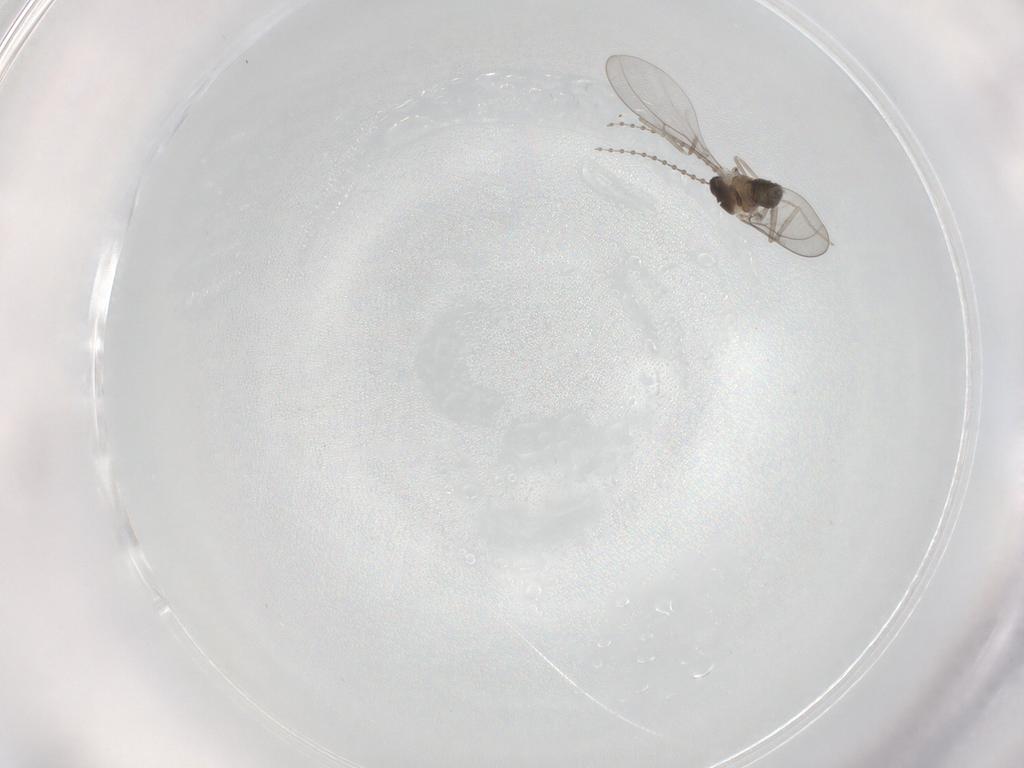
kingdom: Animalia
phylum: Arthropoda
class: Insecta
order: Diptera
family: Cecidomyiidae
